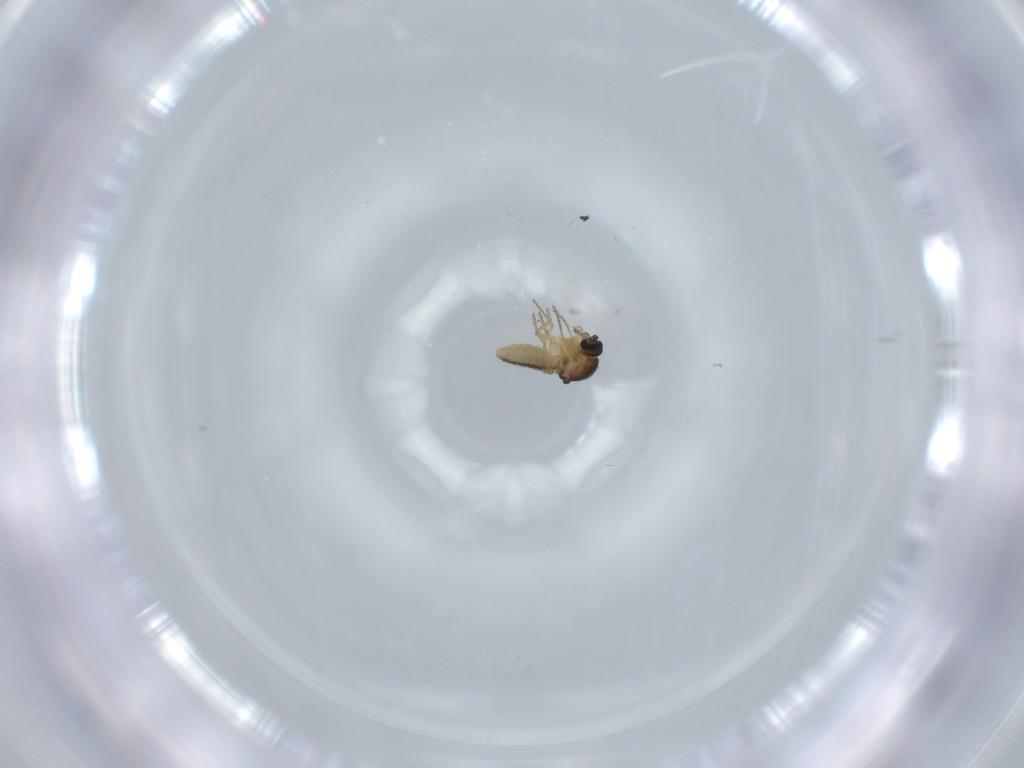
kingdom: Animalia
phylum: Arthropoda
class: Insecta
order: Diptera
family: Ceratopogonidae
